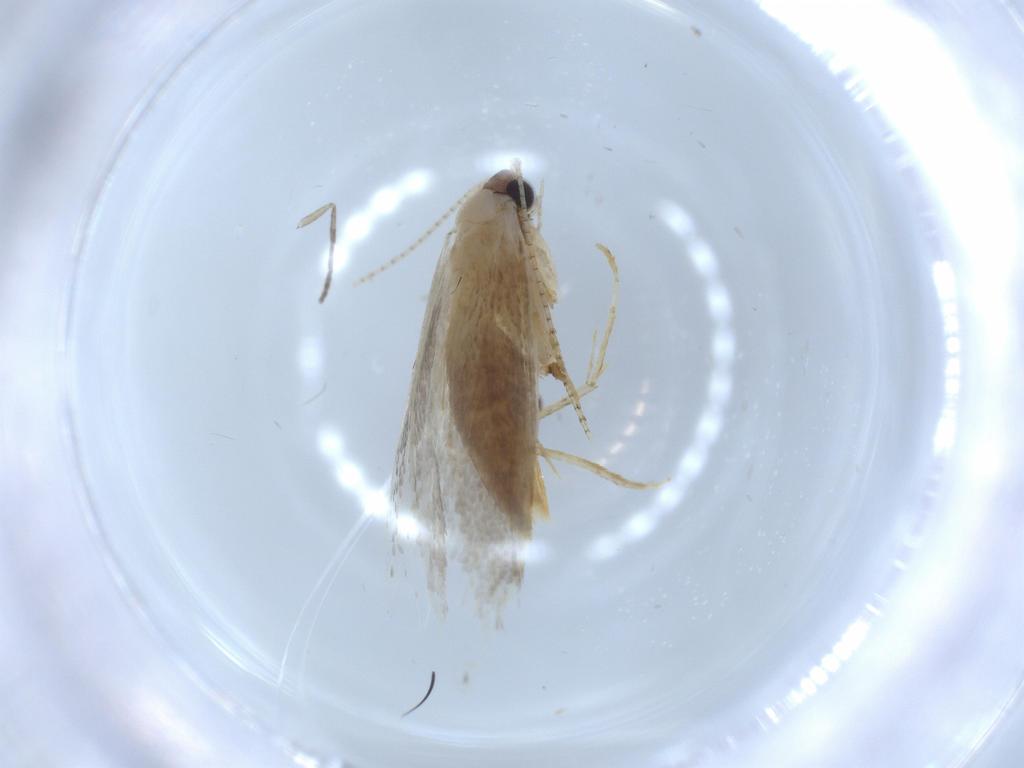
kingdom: Animalia
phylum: Arthropoda
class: Insecta
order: Lepidoptera
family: Tineidae
